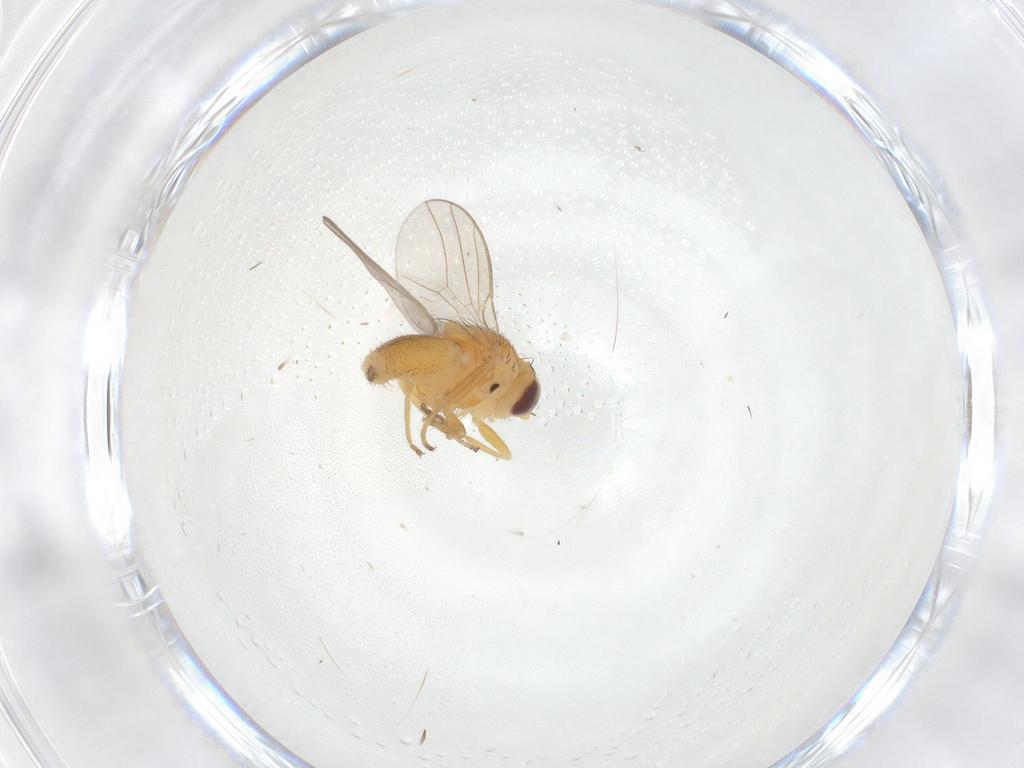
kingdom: Animalia
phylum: Arthropoda
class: Insecta
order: Diptera
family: Chloropidae
